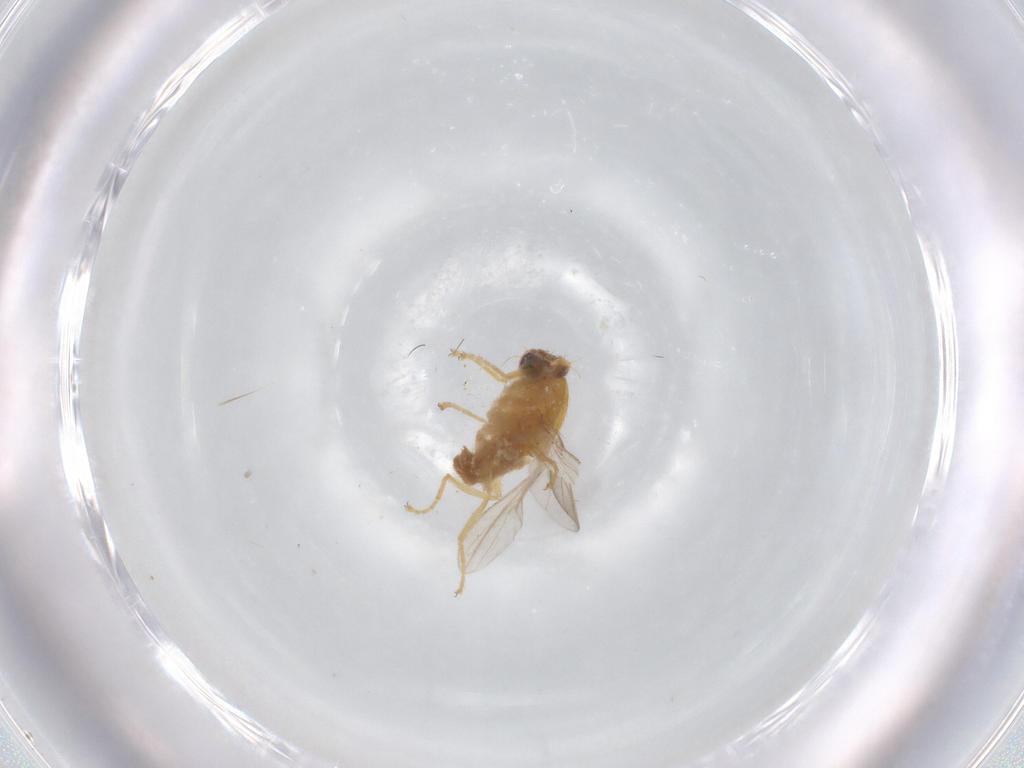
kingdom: Animalia
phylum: Arthropoda
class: Insecta
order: Diptera
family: Chyromyidae
